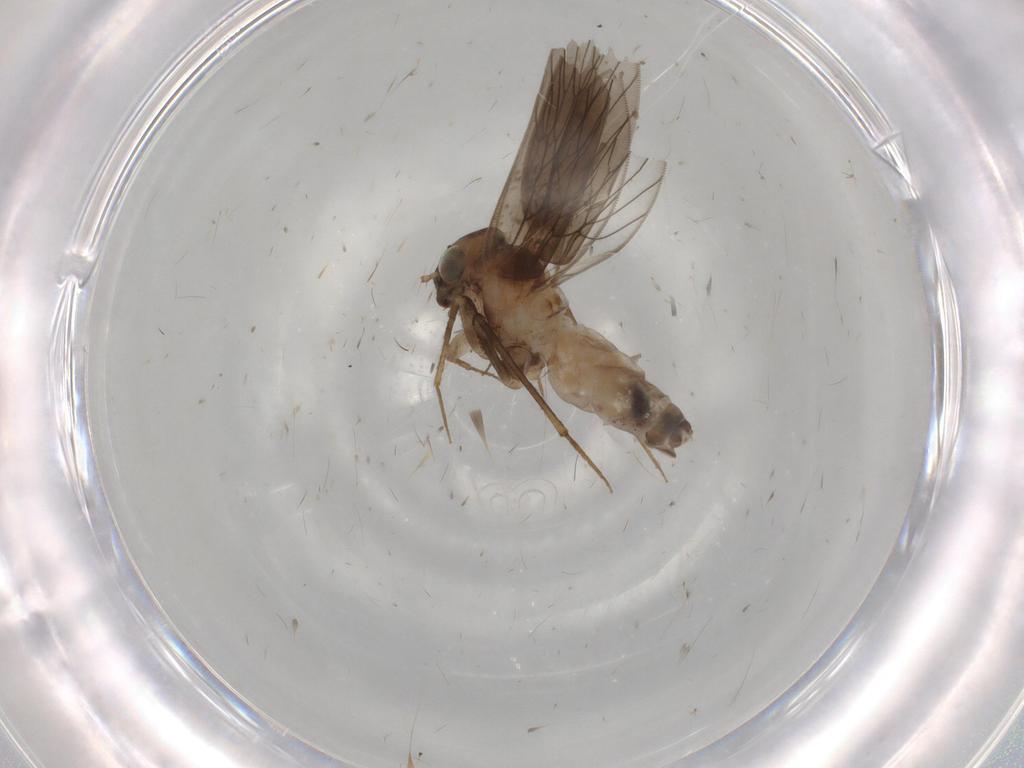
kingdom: Animalia
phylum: Arthropoda
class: Insecta
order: Psocodea
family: Lepidopsocidae
